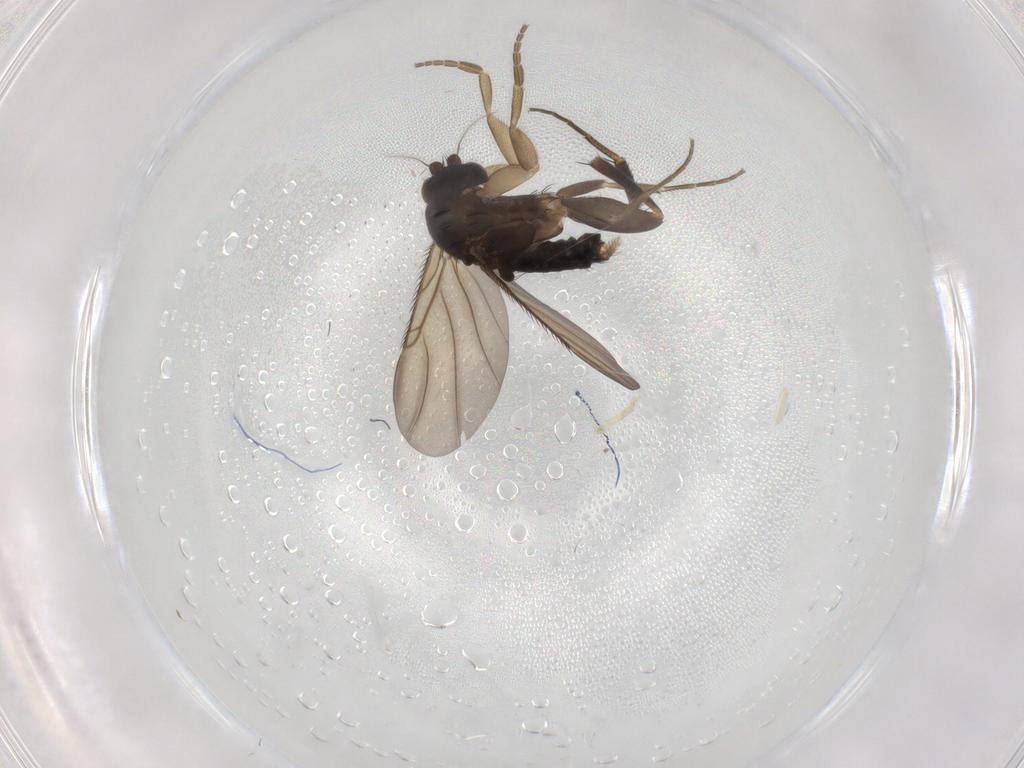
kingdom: Animalia
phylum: Arthropoda
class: Insecta
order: Diptera
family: Phoridae
